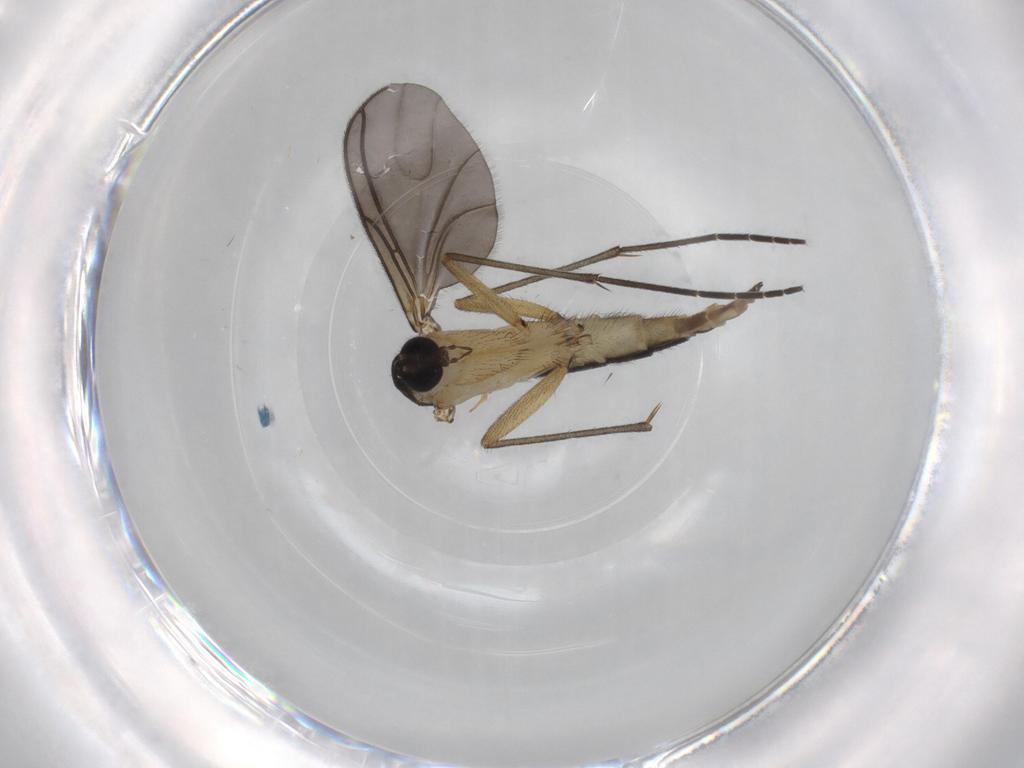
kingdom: Animalia
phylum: Arthropoda
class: Insecta
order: Diptera
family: Sciaridae
